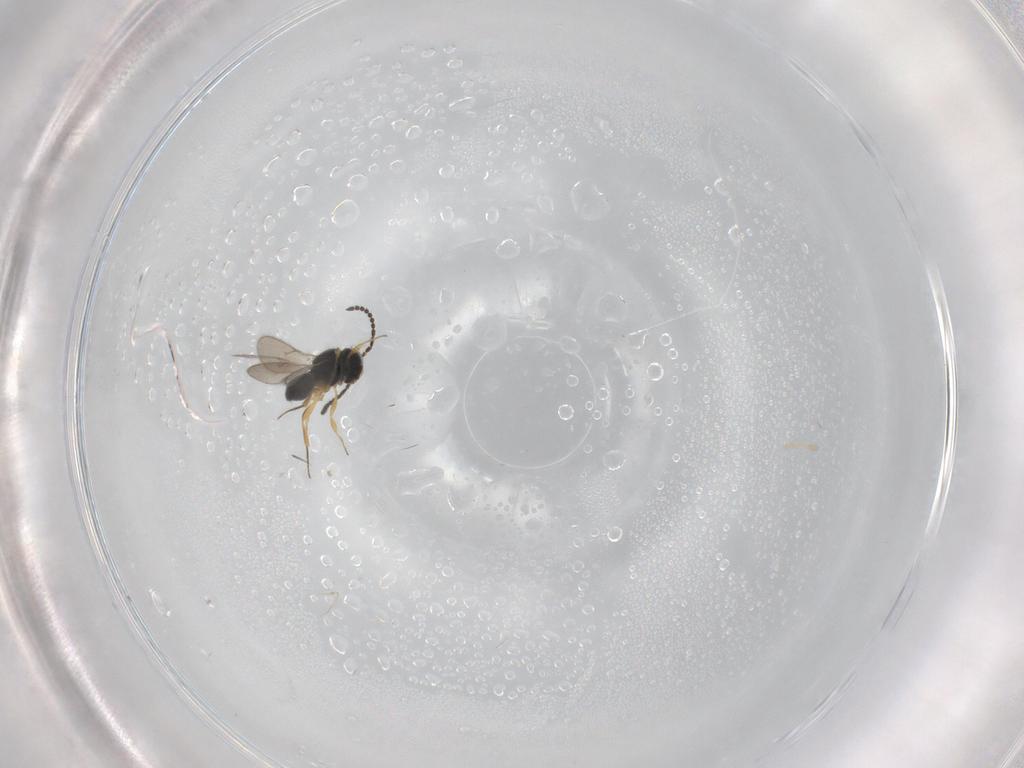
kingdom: Animalia
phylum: Arthropoda
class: Insecta
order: Hymenoptera
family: Scelionidae
